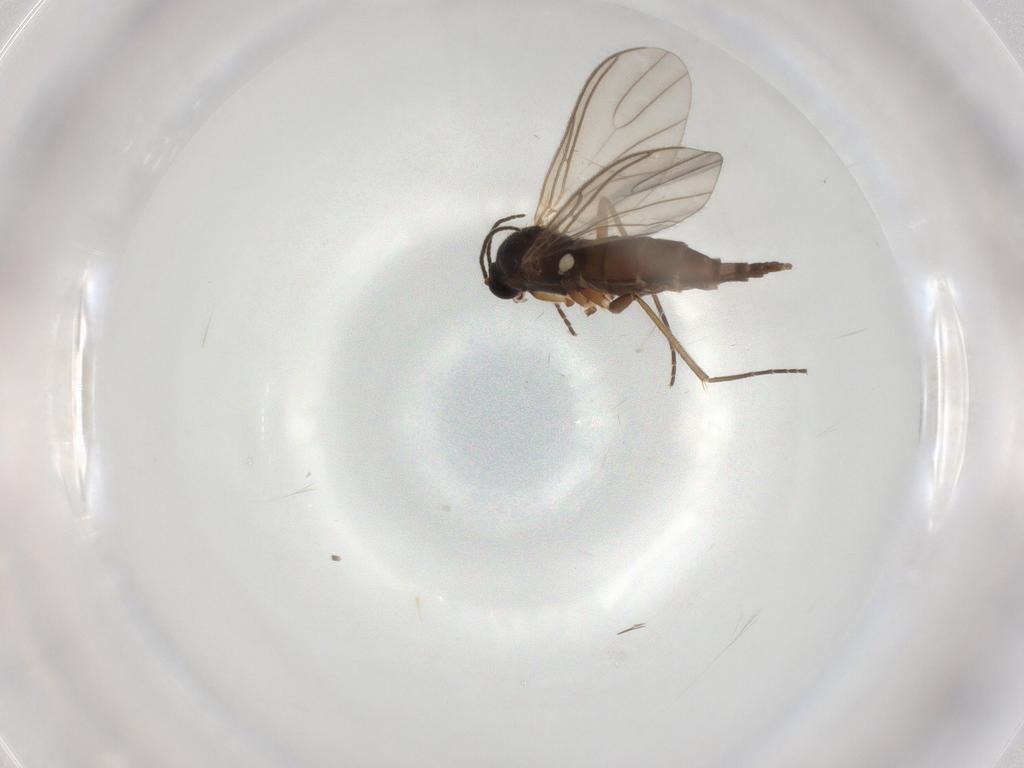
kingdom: Animalia
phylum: Arthropoda
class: Insecta
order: Diptera
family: Sciaridae
